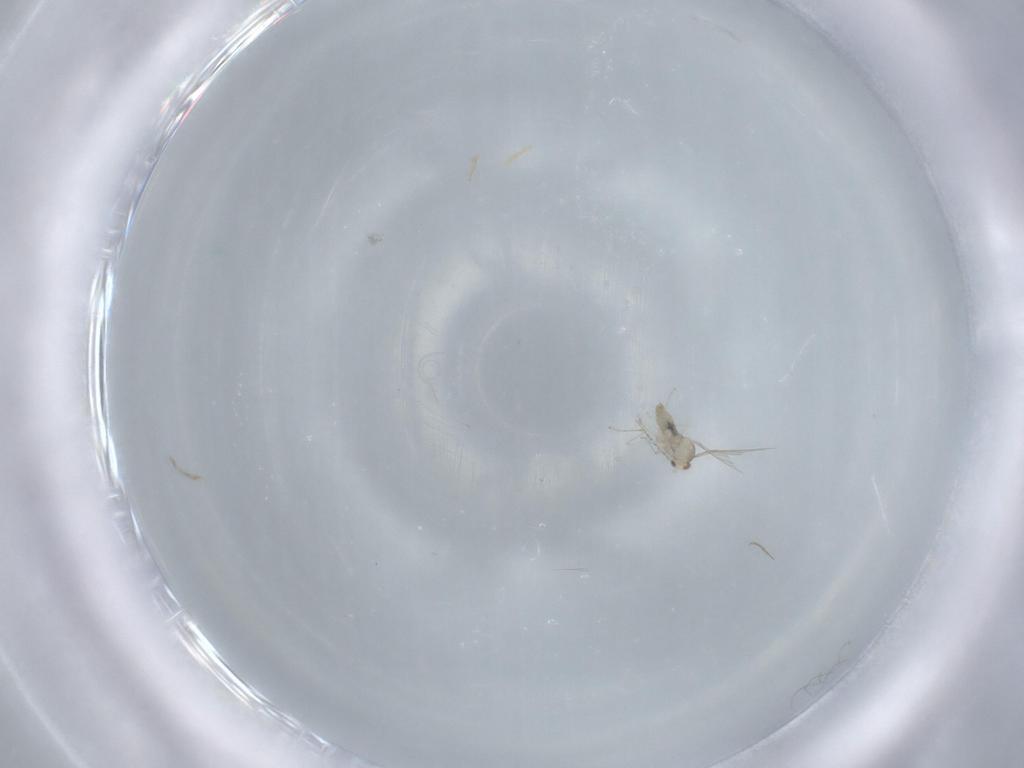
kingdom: Animalia
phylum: Arthropoda
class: Insecta
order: Diptera
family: Cecidomyiidae
